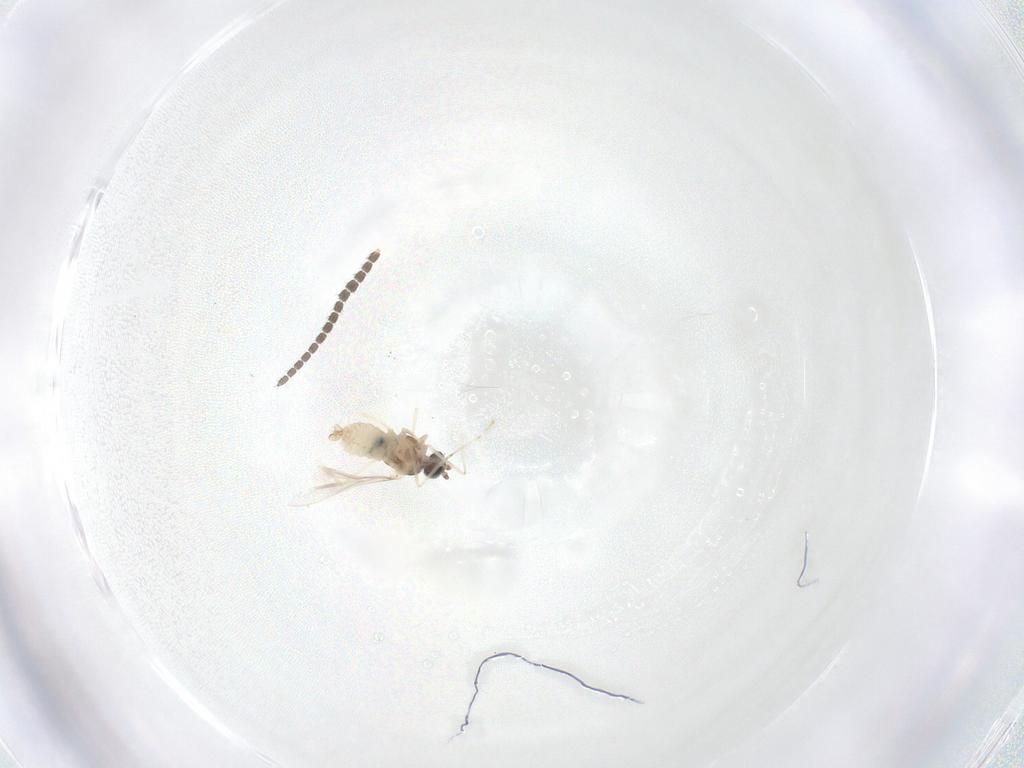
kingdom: Animalia
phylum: Arthropoda
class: Insecta
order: Diptera
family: Cecidomyiidae
